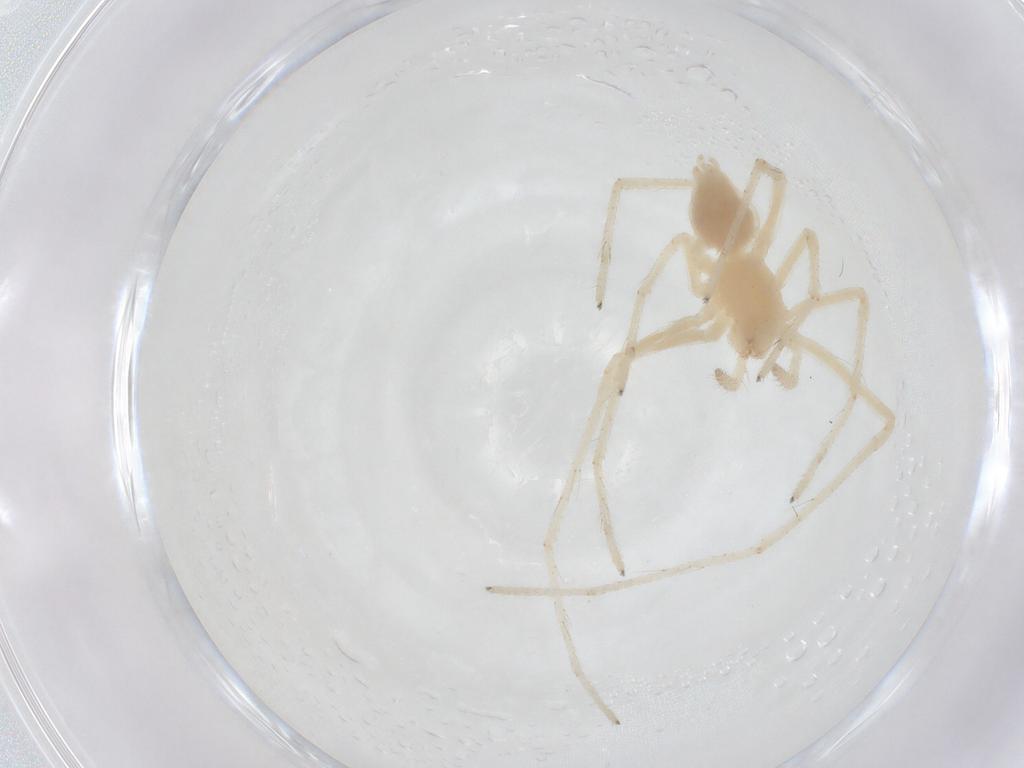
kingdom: Animalia
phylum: Arthropoda
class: Arachnida
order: Araneae
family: Anyphaenidae
